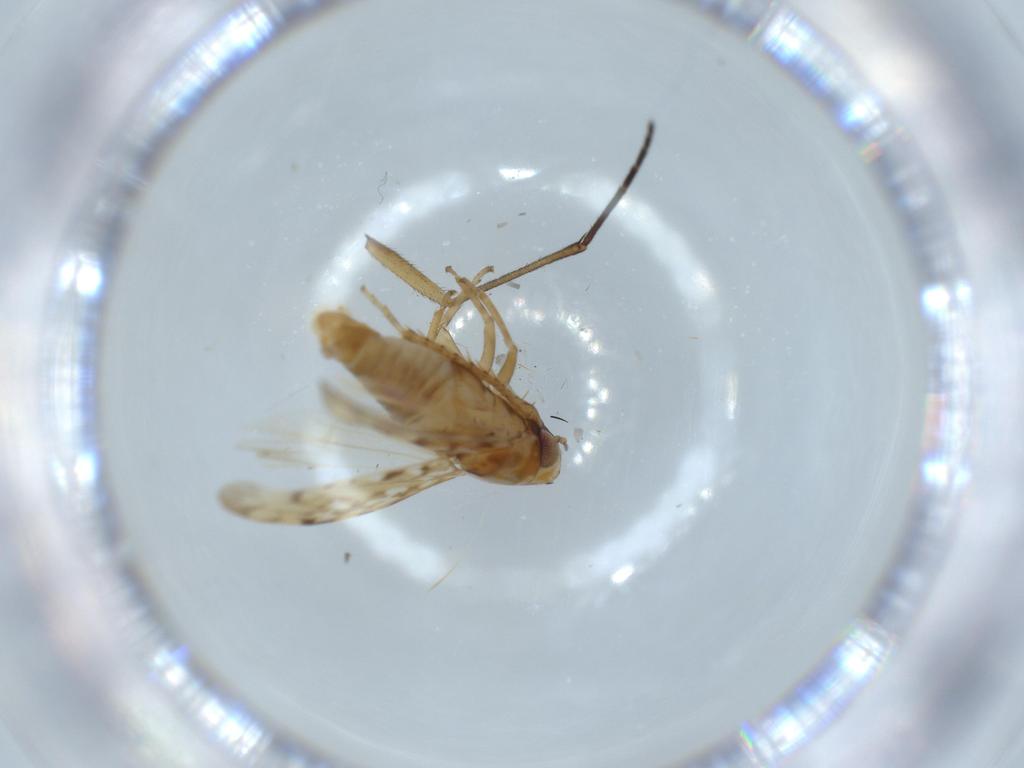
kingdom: Animalia
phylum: Arthropoda
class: Insecta
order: Hemiptera
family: Cicadellidae
